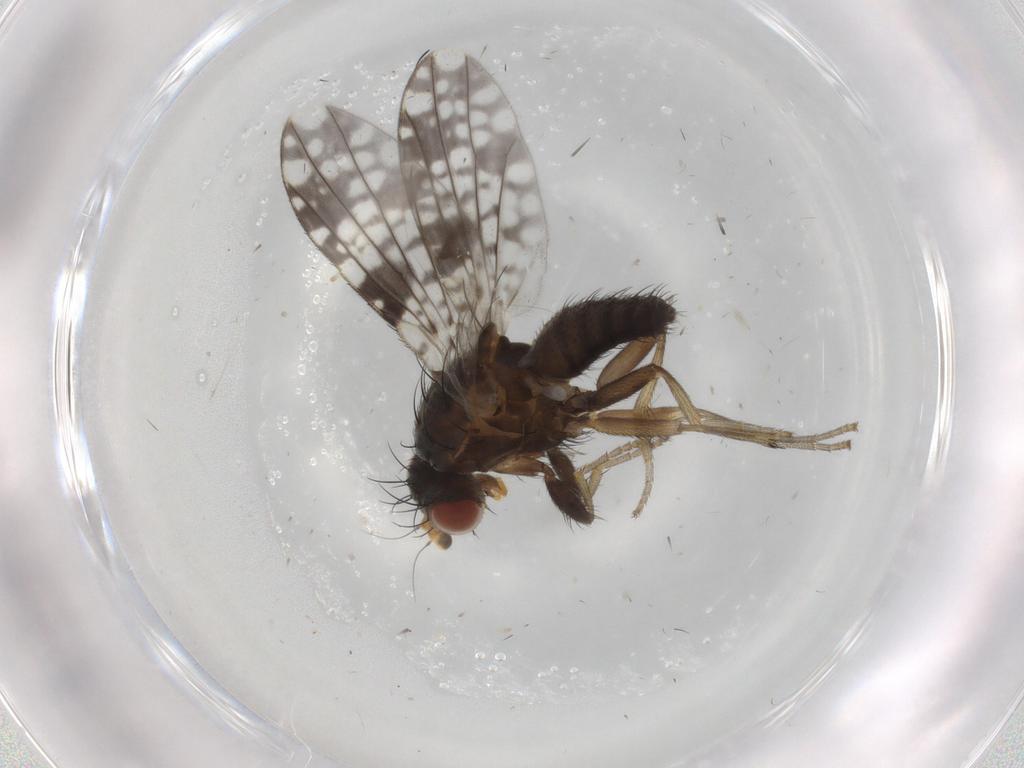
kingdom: Animalia
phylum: Arthropoda
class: Insecta
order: Diptera
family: Tephritidae
